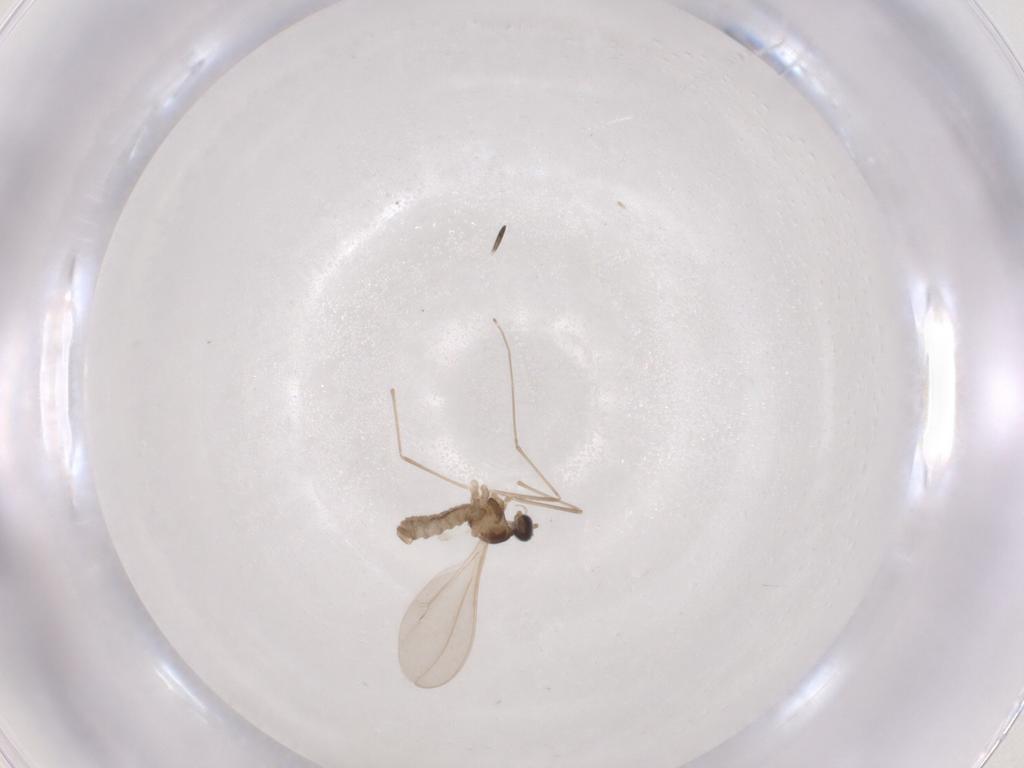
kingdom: Animalia
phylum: Arthropoda
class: Insecta
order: Diptera
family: Cecidomyiidae
